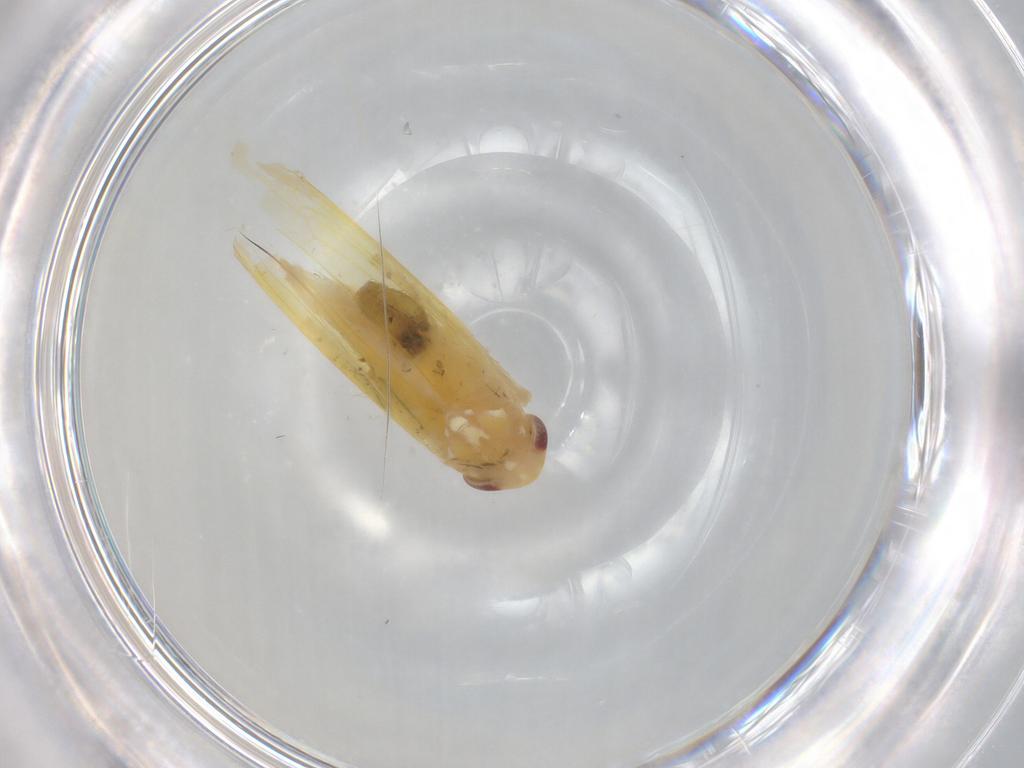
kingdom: Animalia
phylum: Arthropoda
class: Insecta
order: Hemiptera
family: Cicadellidae
